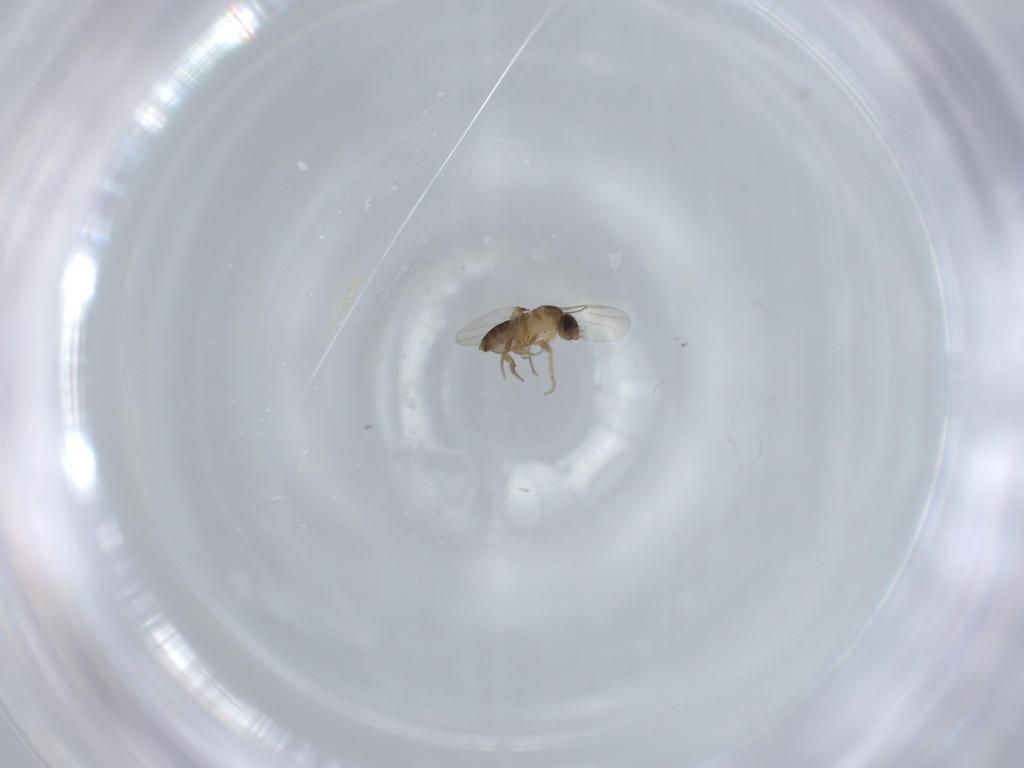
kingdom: Animalia
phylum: Arthropoda
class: Insecta
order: Diptera
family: Phoridae
